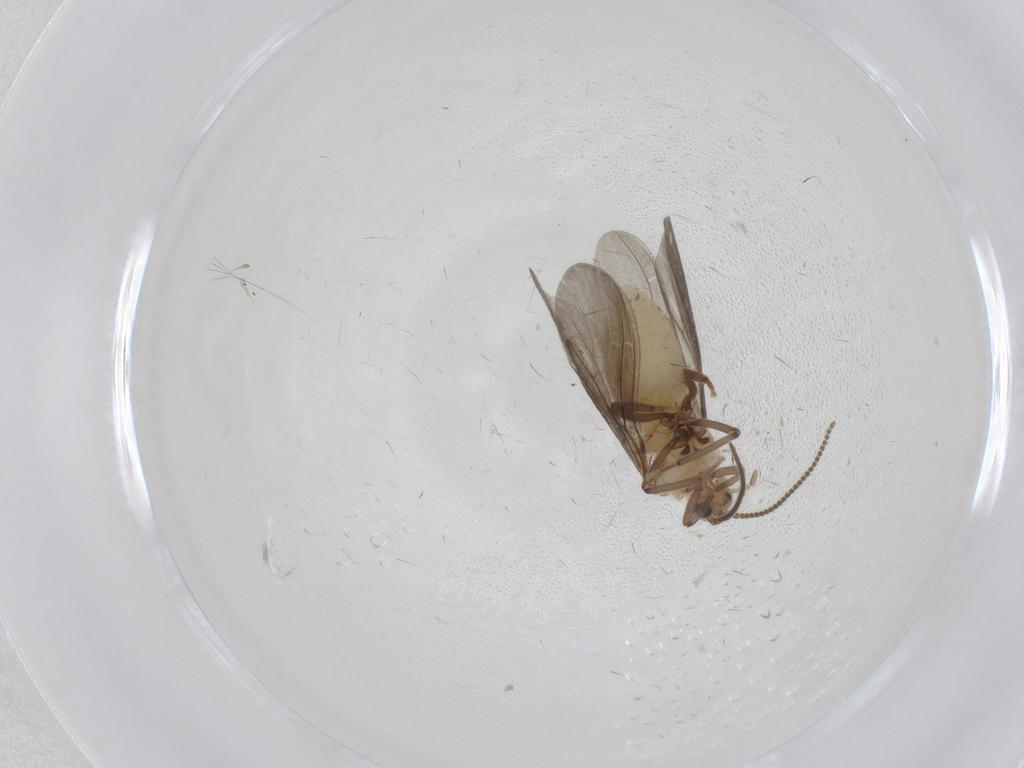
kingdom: Animalia
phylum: Arthropoda
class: Insecta
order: Neuroptera
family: Coniopterygidae
